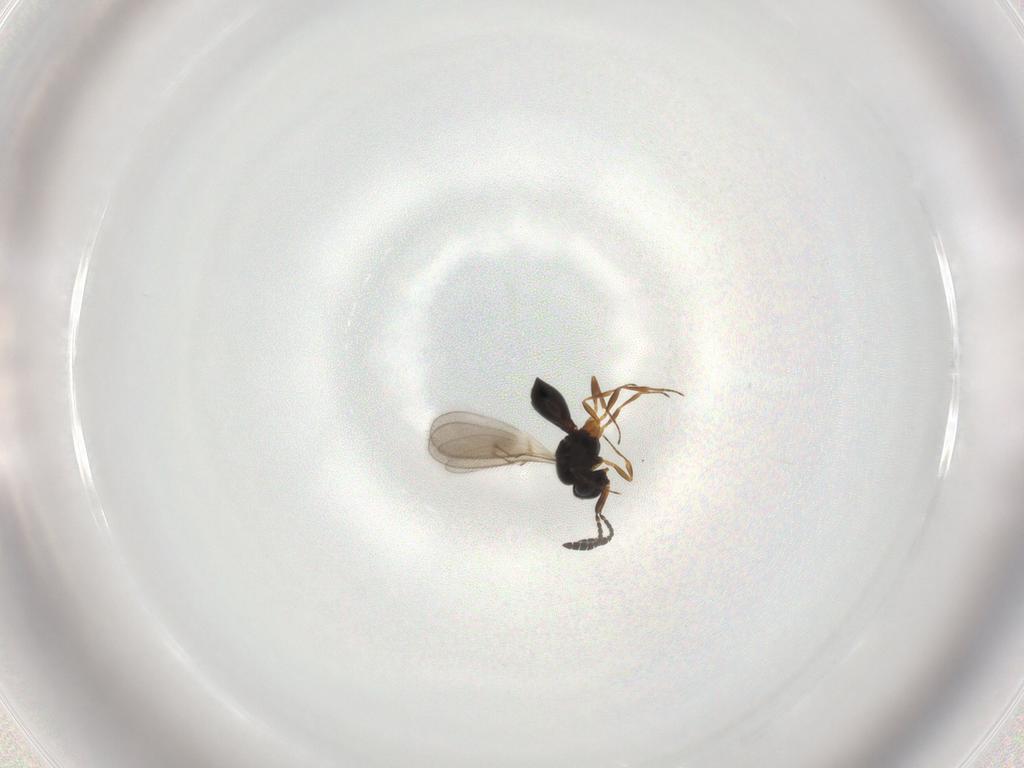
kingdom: Animalia
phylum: Arthropoda
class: Insecta
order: Hymenoptera
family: Scelionidae
